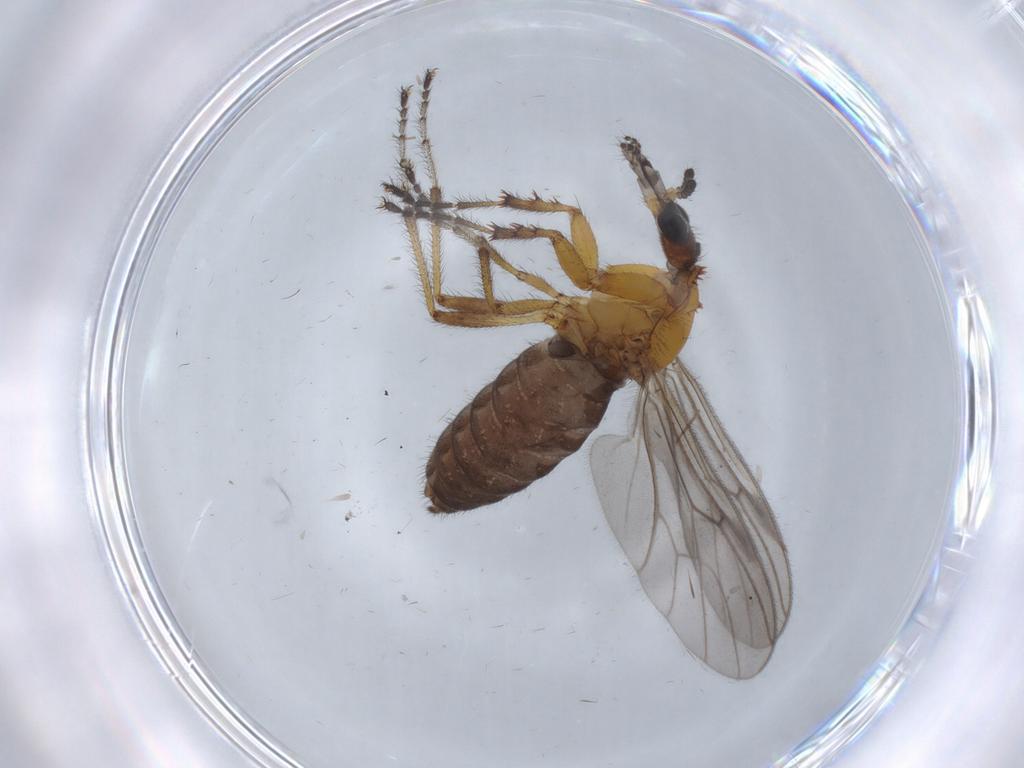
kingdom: Animalia
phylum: Arthropoda
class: Insecta
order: Diptera
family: Bibionidae
